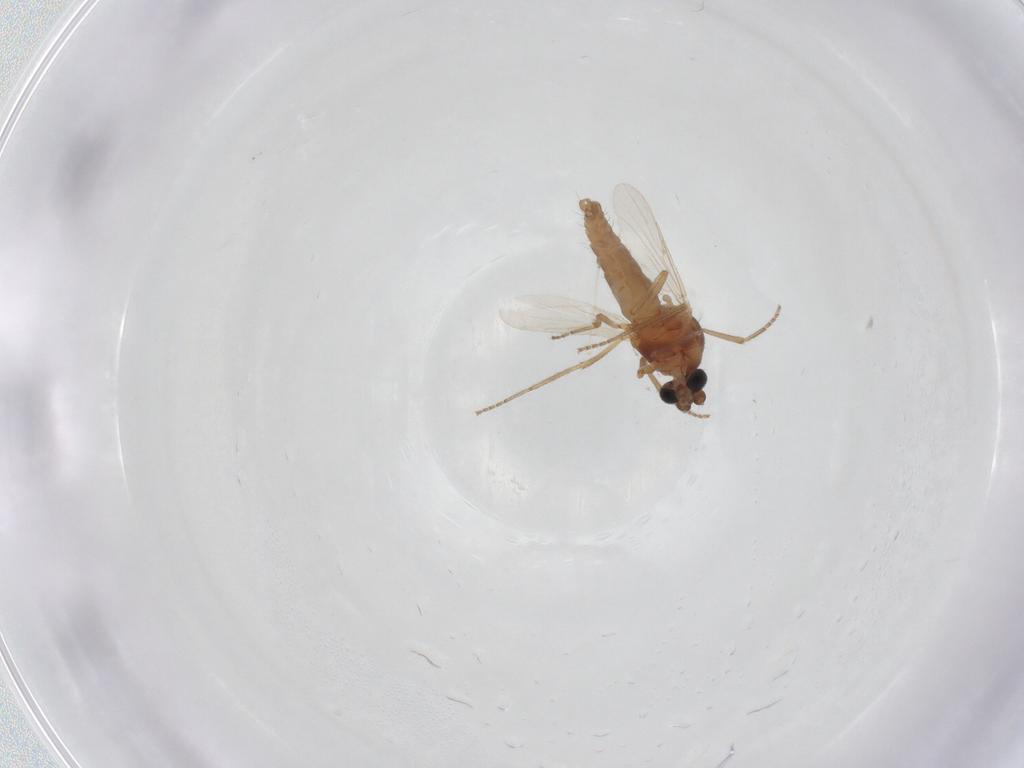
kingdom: Animalia
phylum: Arthropoda
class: Insecta
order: Diptera
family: Ceratopogonidae
